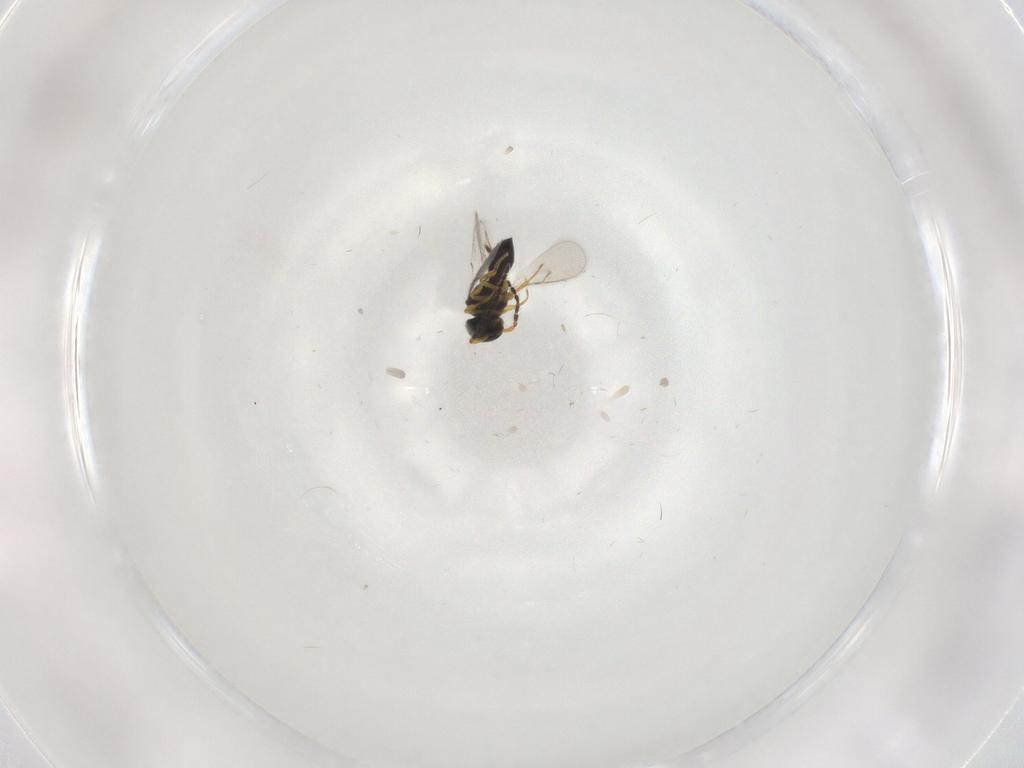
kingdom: Animalia
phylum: Arthropoda
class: Insecta
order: Hymenoptera
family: Scelionidae
